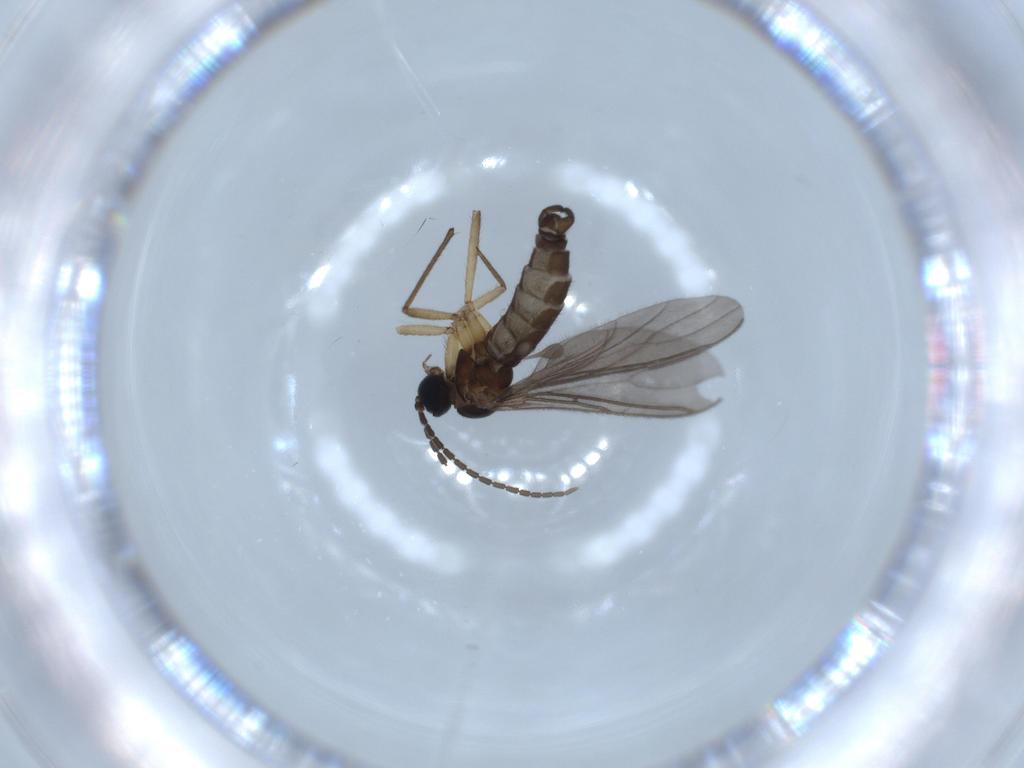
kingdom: Animalia
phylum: Arthropoda
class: Insecta
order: Diptera
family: Sciaridae
